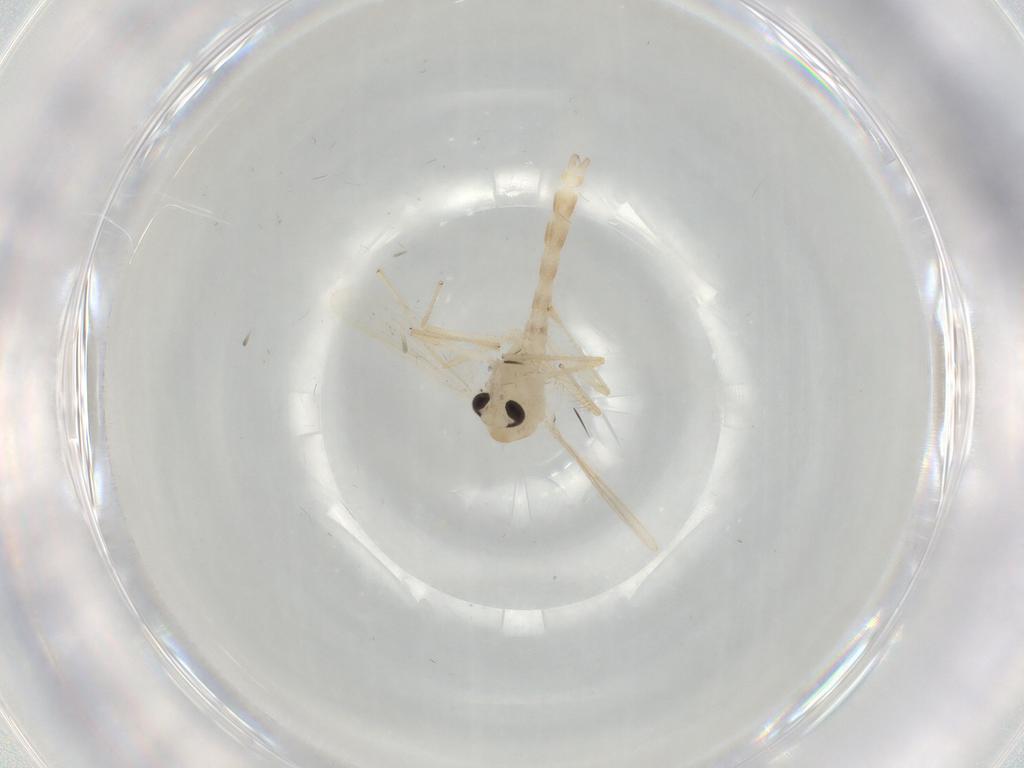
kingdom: Animalia
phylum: Arthropoda
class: Insecta
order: Diptera
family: Chironomidae
